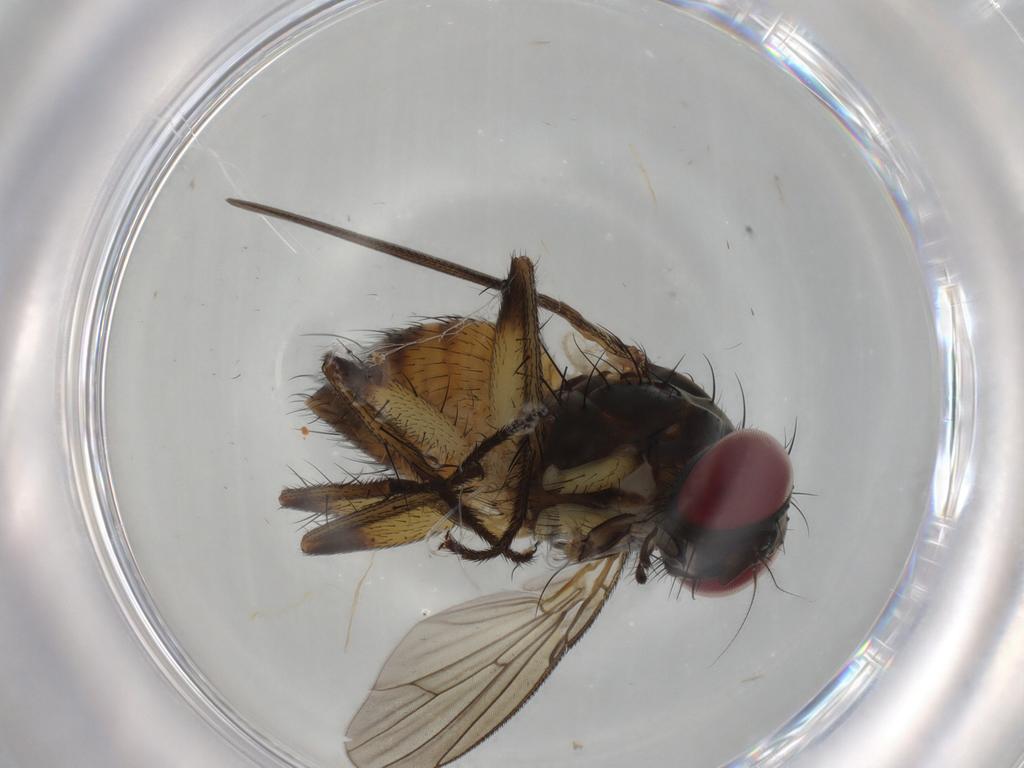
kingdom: Animalia
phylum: Arthropoda
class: Insecta
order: Diptera
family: Muscidae
